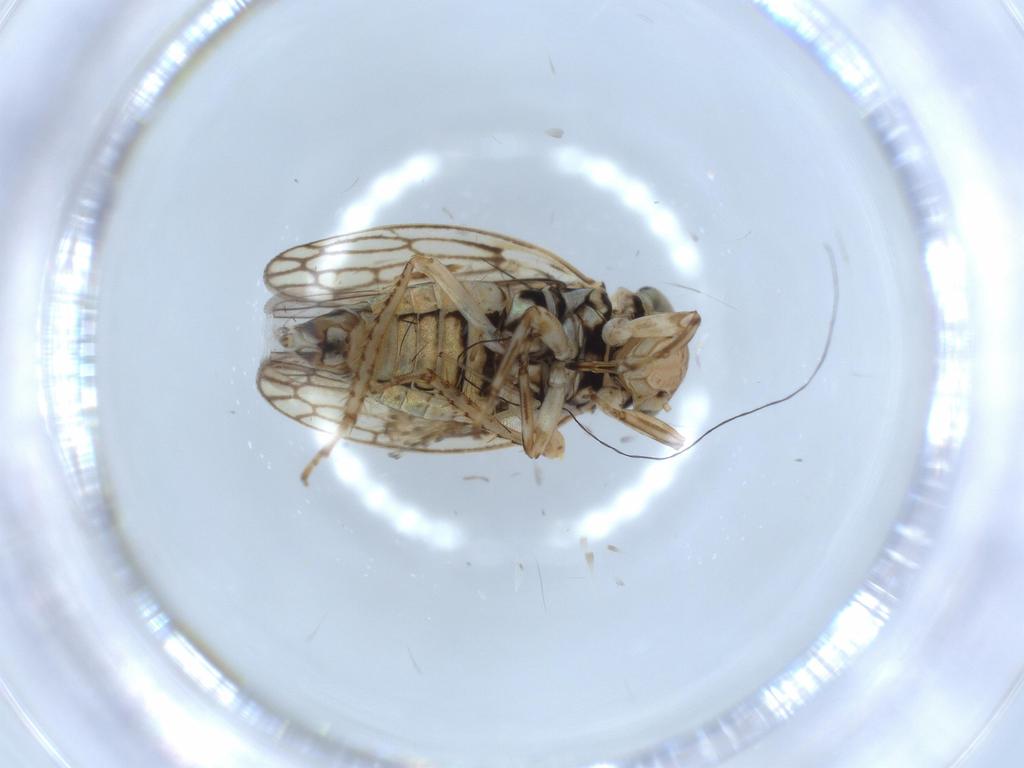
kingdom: Animalia
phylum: Arthropoda
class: Insecta
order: Hemiptera
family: Cicadellidae
